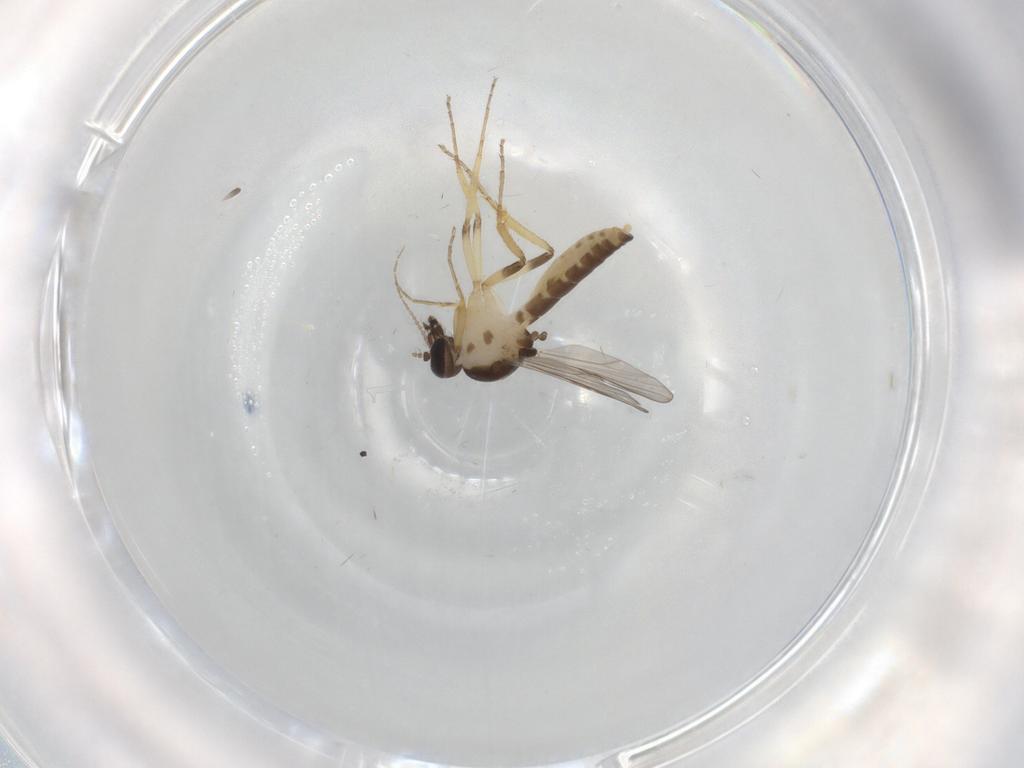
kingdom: Animalia
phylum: Arthropoda
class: Insecta
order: Diptera
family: Ceratopogonidae
